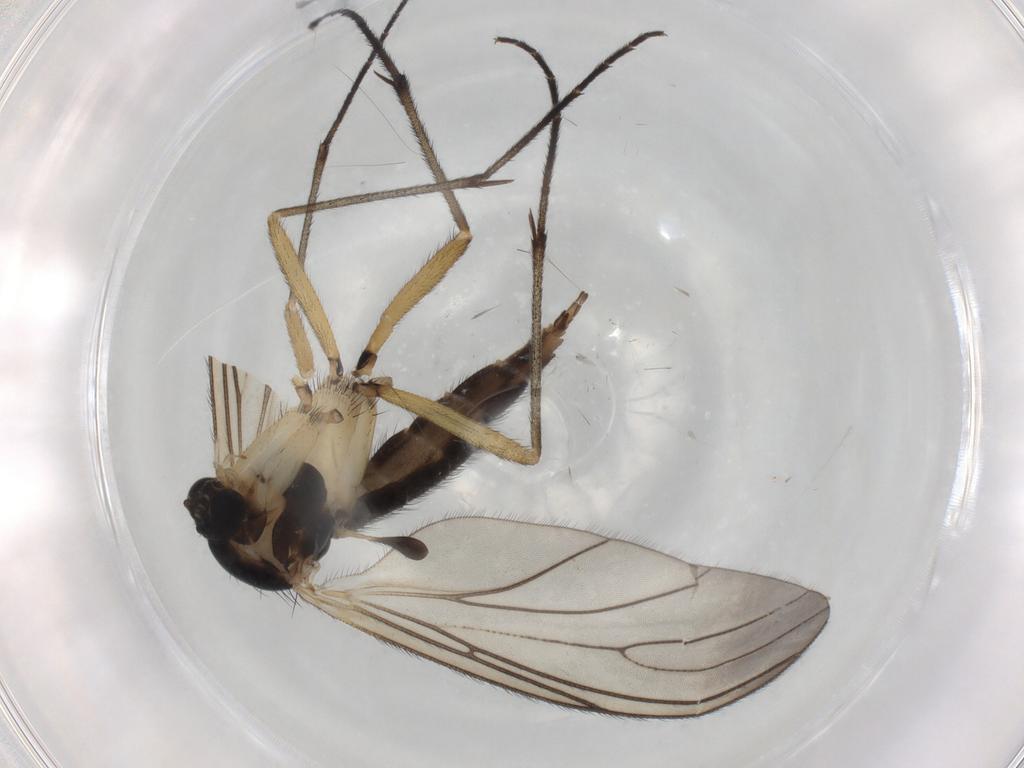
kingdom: Animalia
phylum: Arthropoda
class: Insecta
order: Diptera
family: Sciaridae
